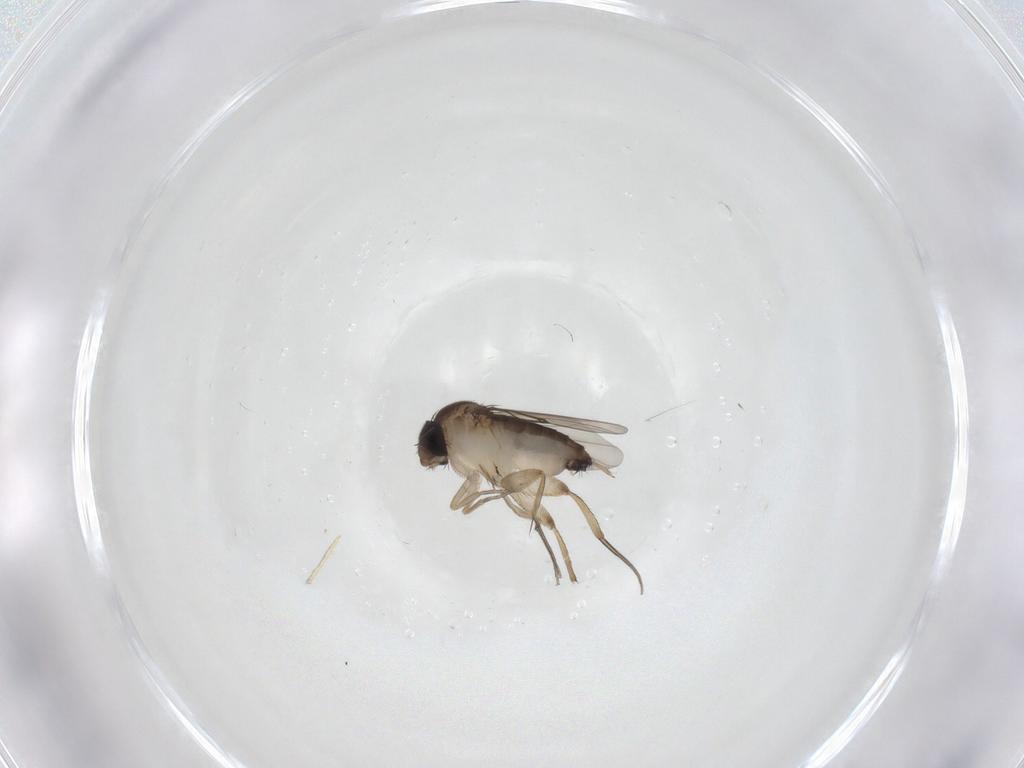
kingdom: Animalia
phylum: Arthropoda
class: Insecta
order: Diptera
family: Phoridae
